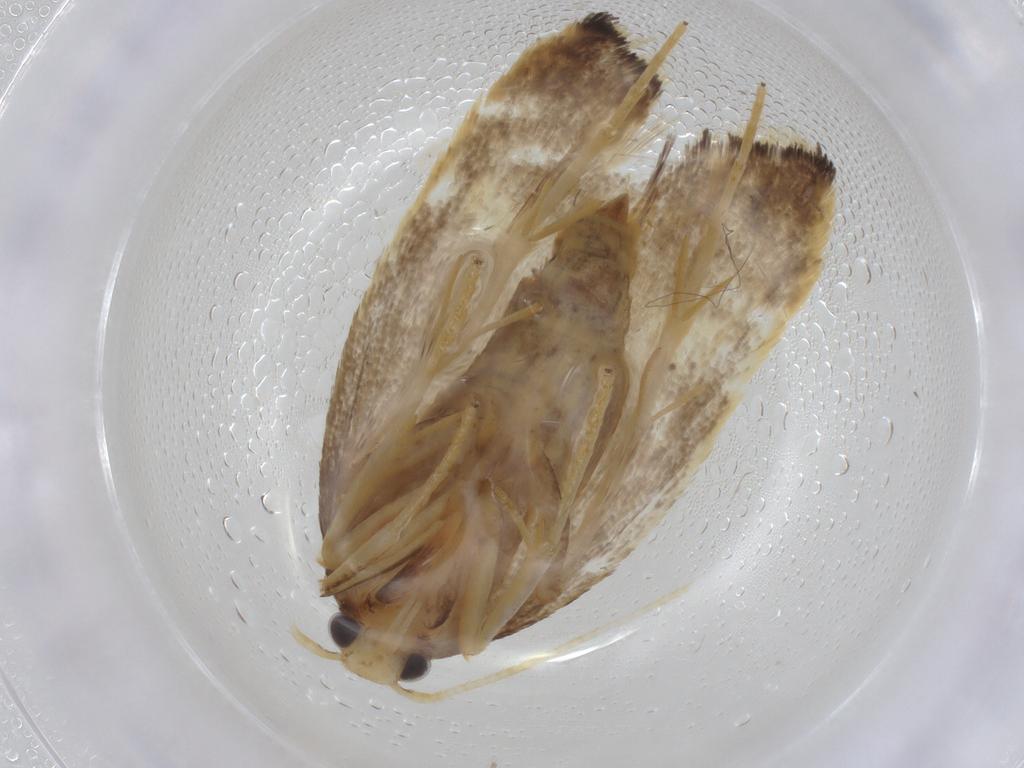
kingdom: Animalia
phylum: Arthropoda
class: Insecta
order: Lepidoptera
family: Lecithoceridae
